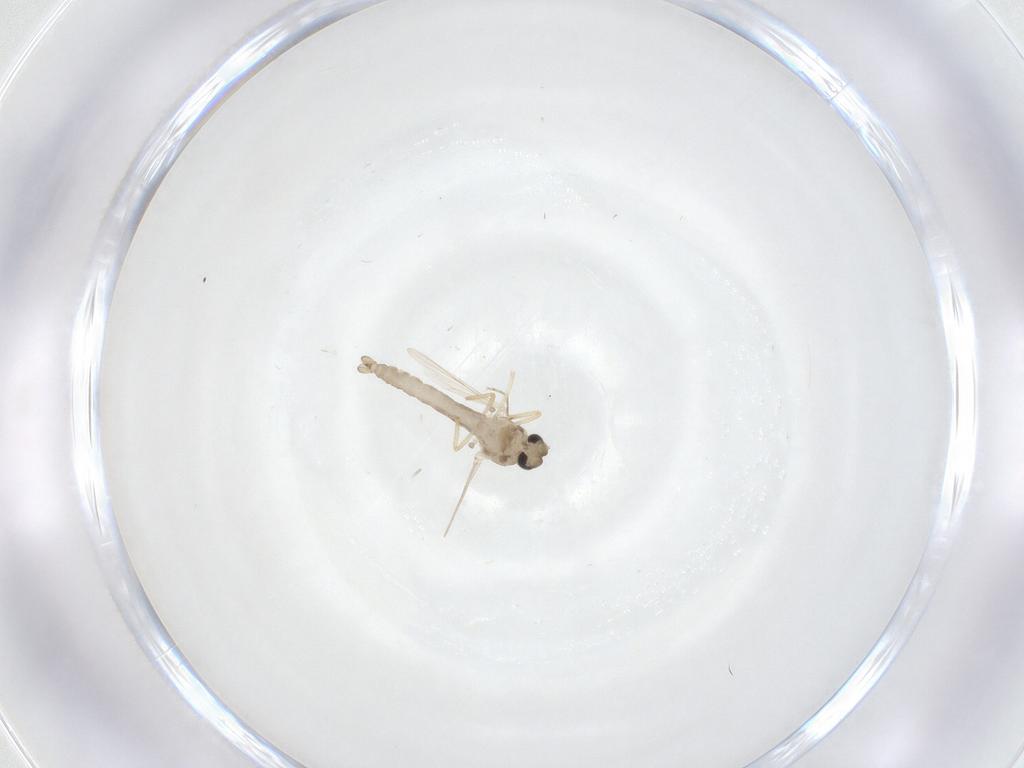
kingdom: Animalia
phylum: Arthropoda
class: Insecta
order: Diptera
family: Ceratopogonidae
